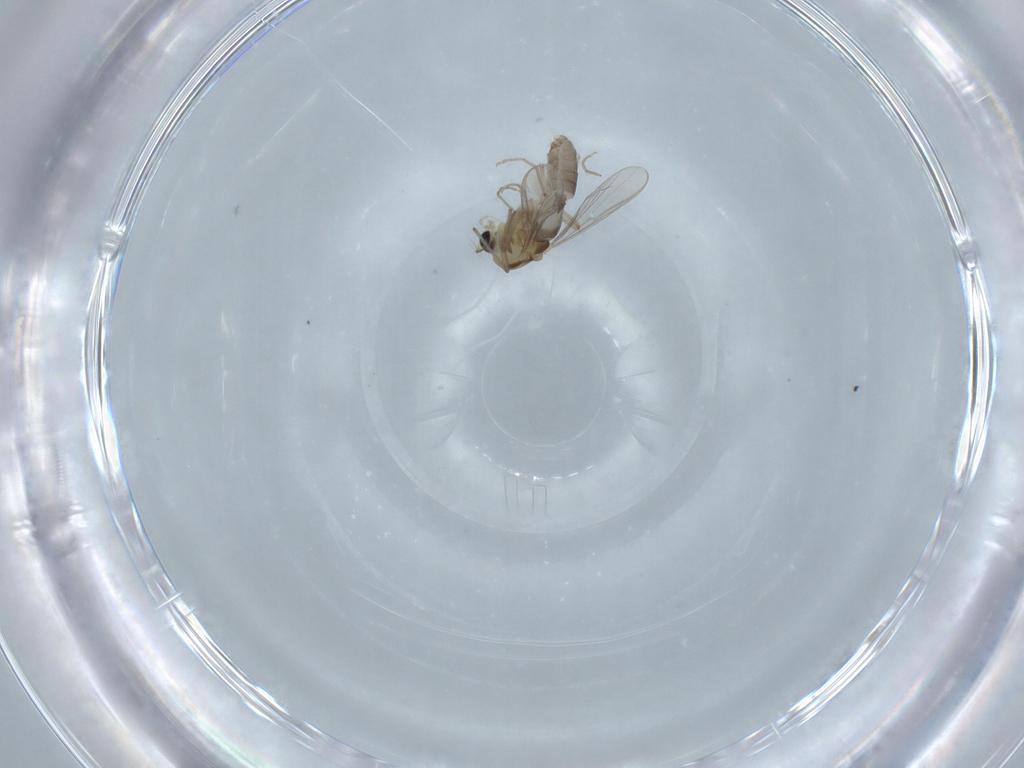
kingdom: Animalia
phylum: Arthropoda
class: Insecta
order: Diptera
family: Chironomidae
